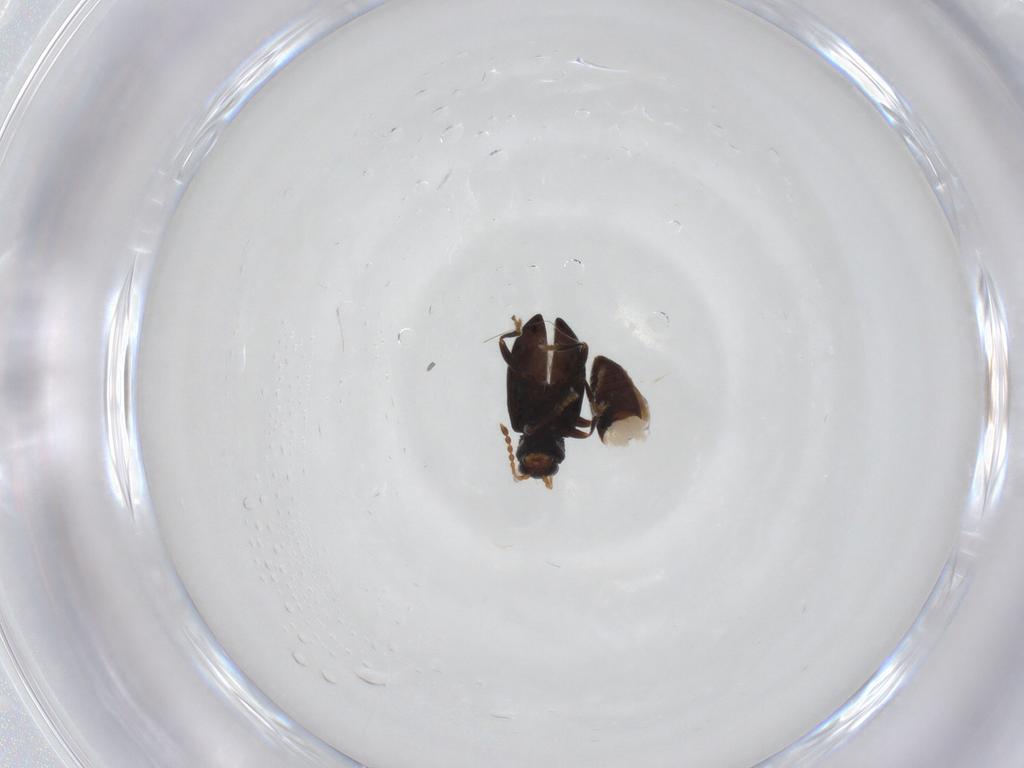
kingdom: Animalia
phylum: Arthropoda
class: Insecta
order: Coleoptera
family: Chrysomelidae
